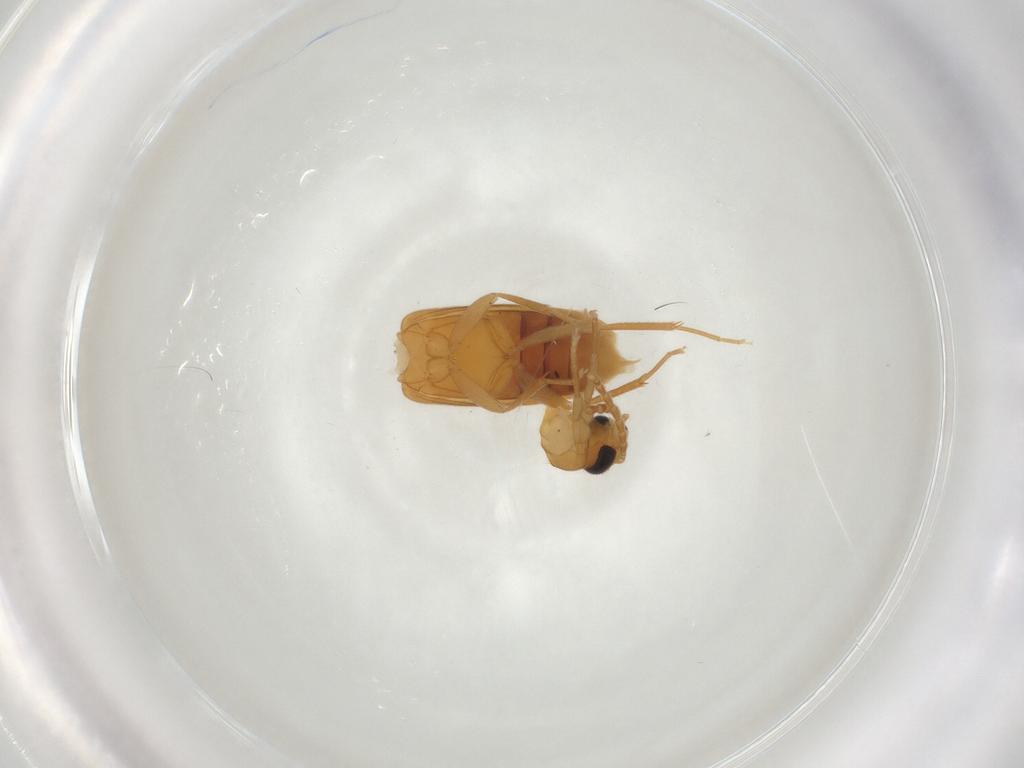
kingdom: Animalia
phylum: Arthropoda
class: Insecta
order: Coleoptera
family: Scraptiidae
